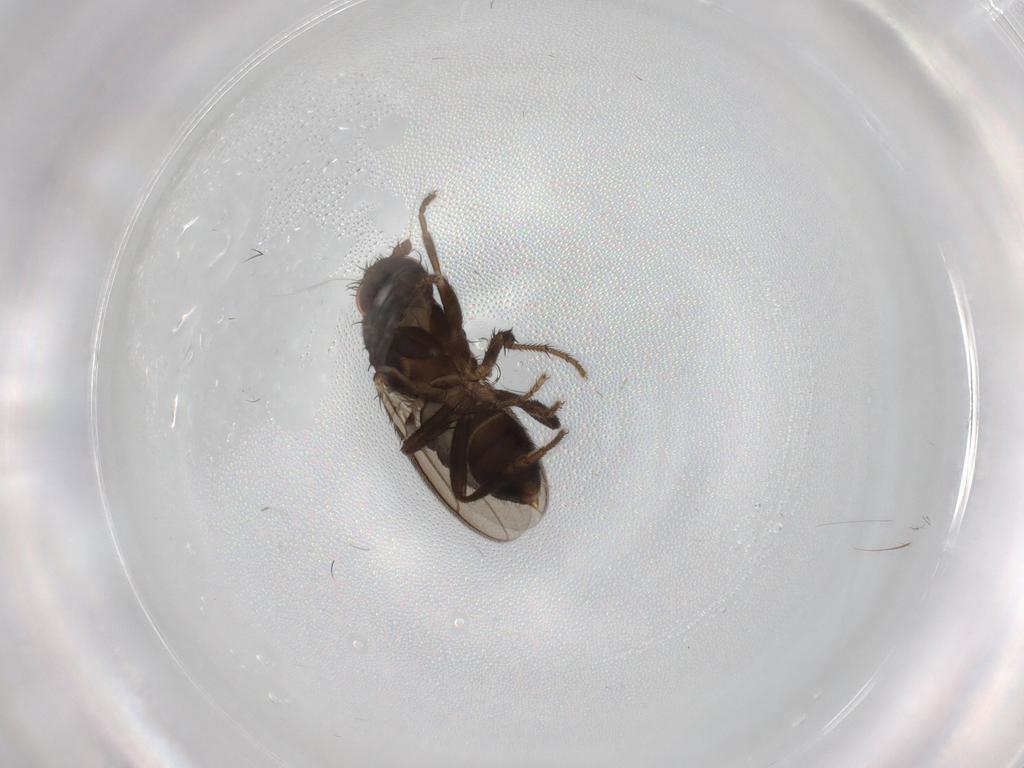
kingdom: Animalia
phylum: Arthropoda
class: Insecta
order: Diptera
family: Sphaeroceridae
